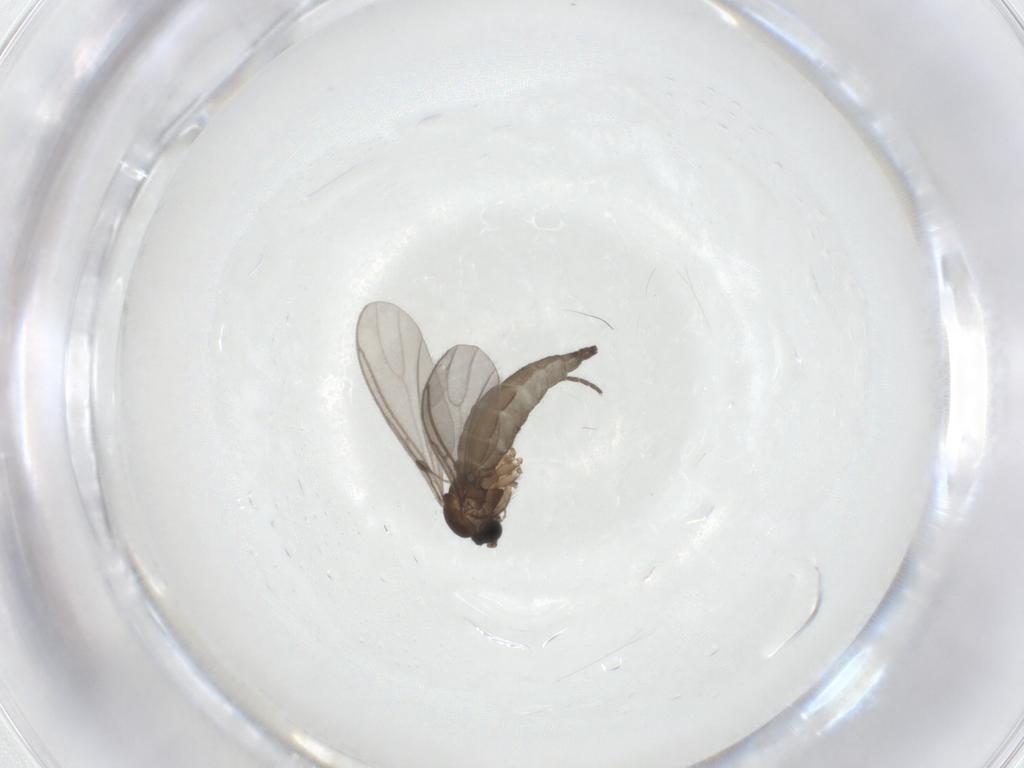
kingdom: Animalia
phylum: Arthropoda
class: Insecta
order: Diptera
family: Sciaridae
